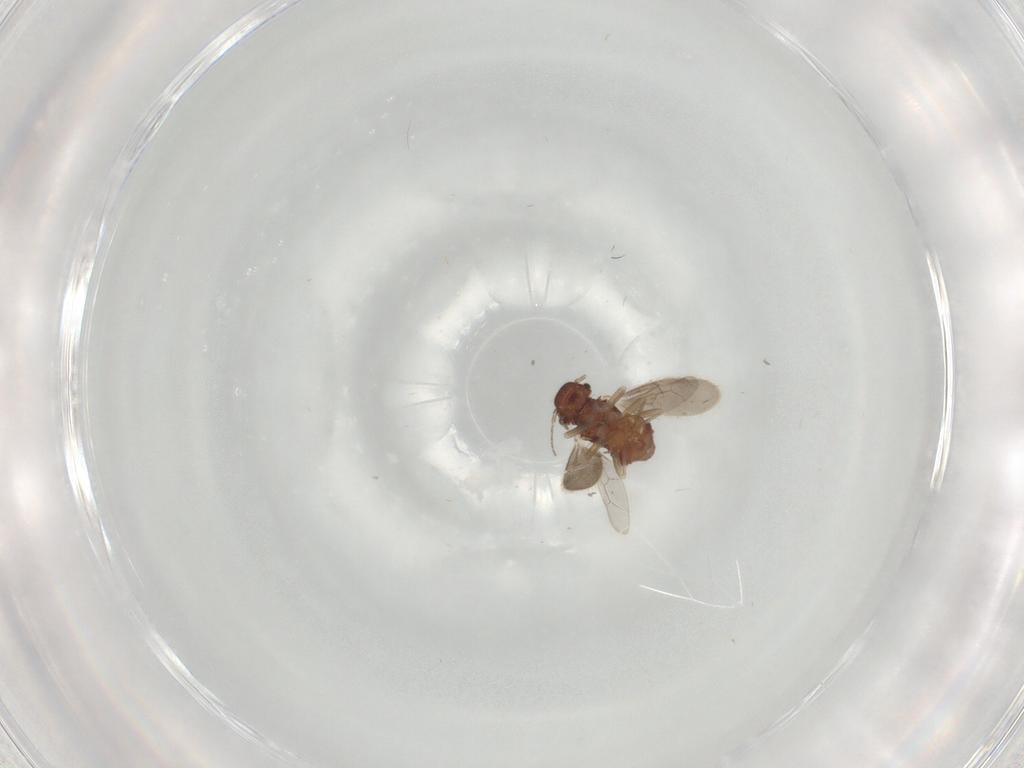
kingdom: Animalia
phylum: Arthropoda
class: Insecta
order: Psocodea
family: Archipsocidae
